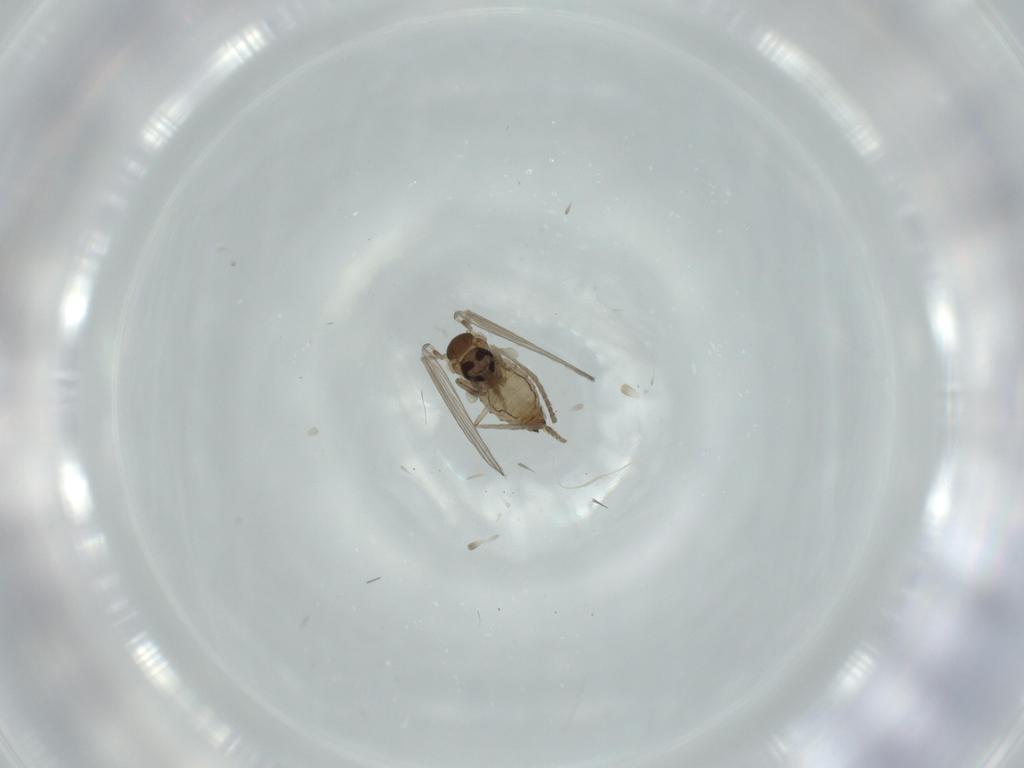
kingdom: Animalia
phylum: Arthropoda
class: Insecta
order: Diptera
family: Psychodidae
